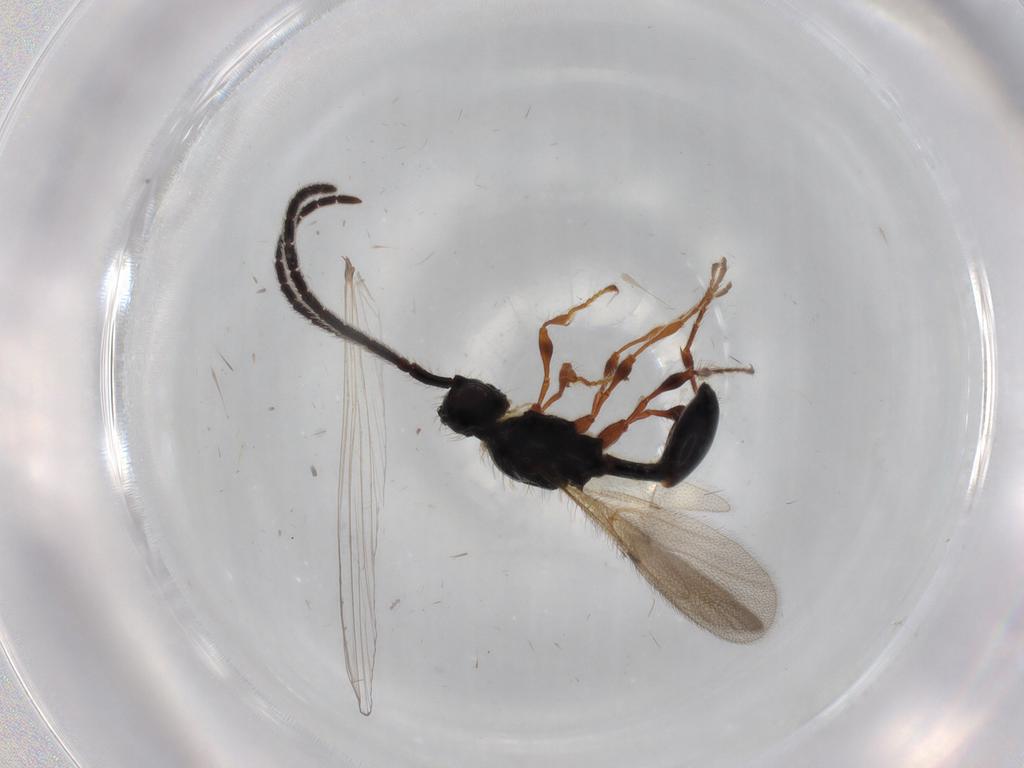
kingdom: Animalia
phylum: Arthropoda
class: Insecta
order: Hymenoptera
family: Diapriidae
